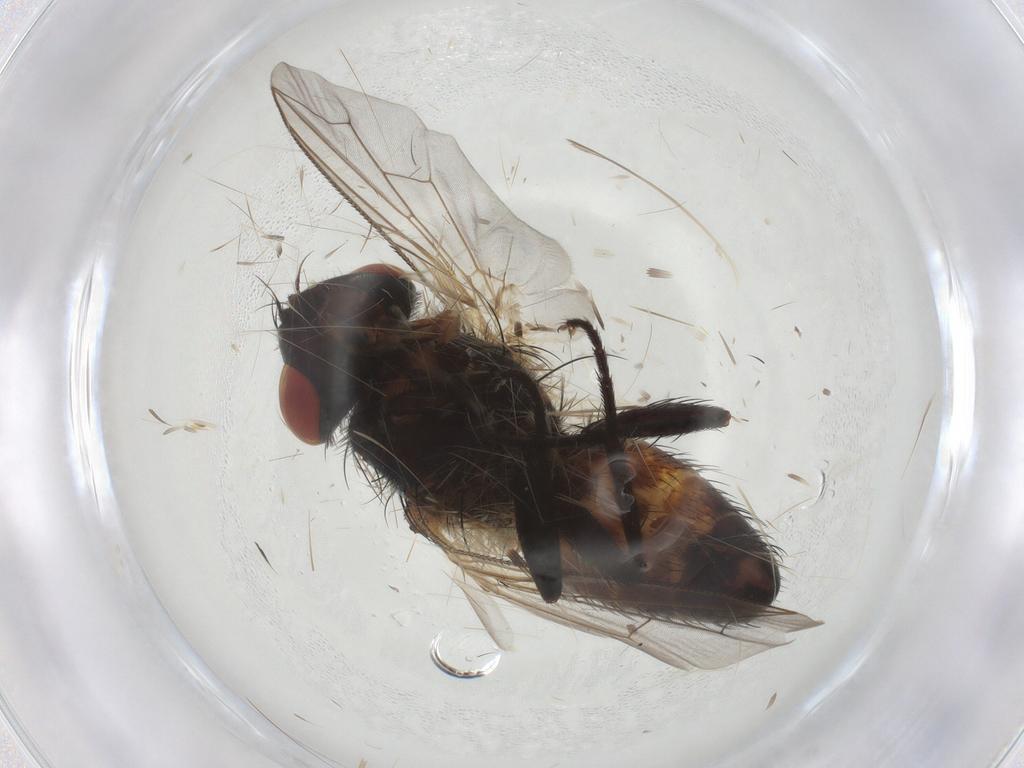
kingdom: Animalia
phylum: Arthropoda
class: Insecta
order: Diptera
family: Sarcophagidae
